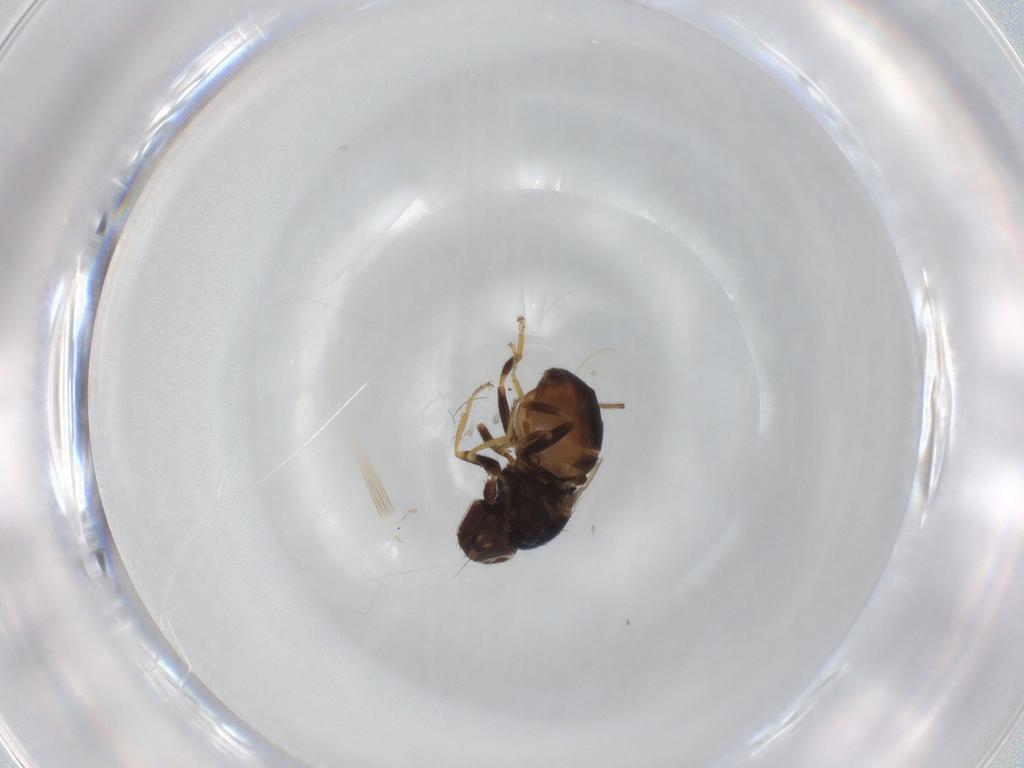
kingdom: Animalia
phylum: Arthropoda
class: Insecta
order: Diptera
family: Chloropidae
